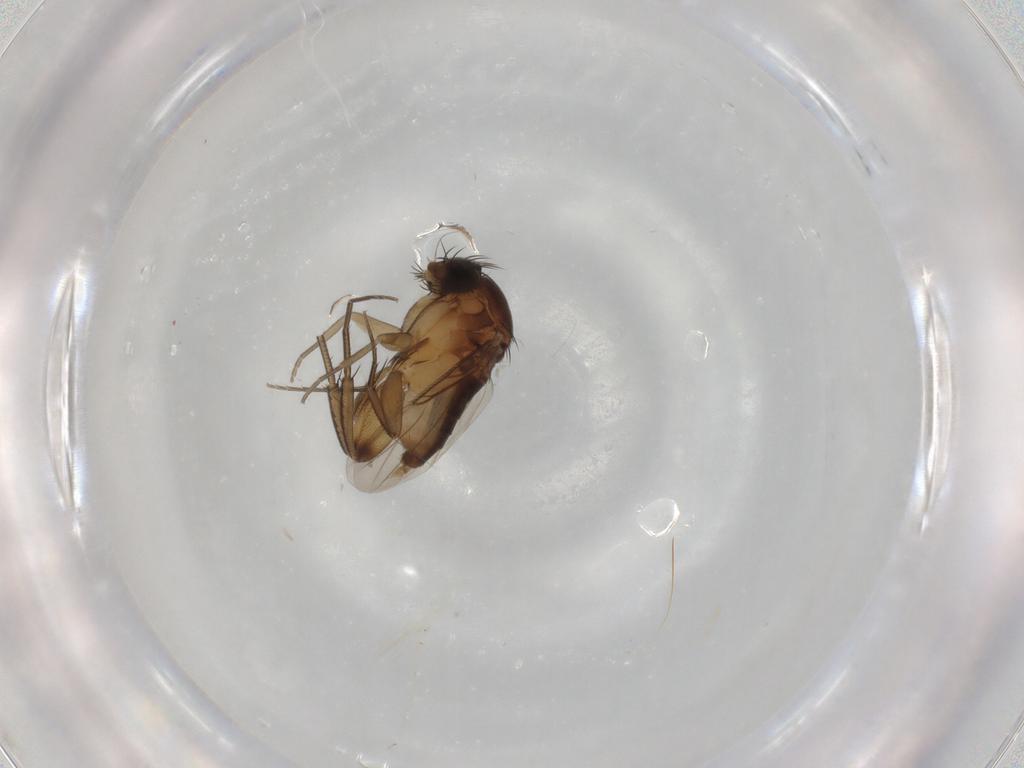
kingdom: Animalia
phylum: Arthropoda
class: Insecta
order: Diptera
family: Phoridae
